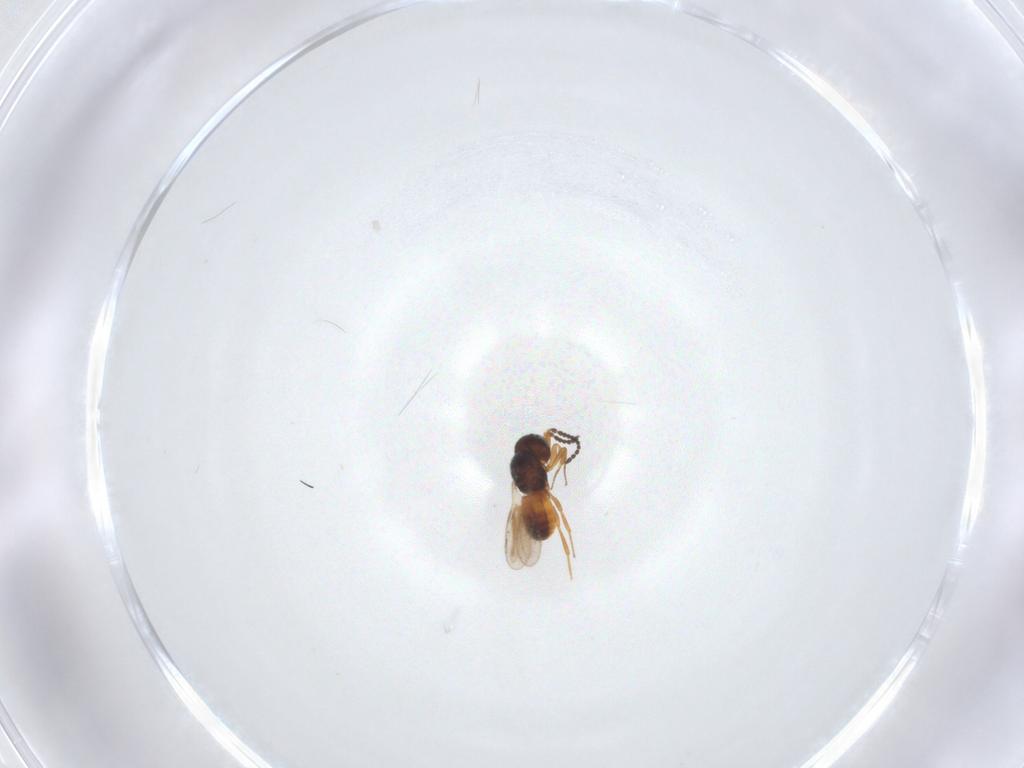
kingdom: Animalia
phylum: Arthropoda
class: Insecta
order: Hymenoptera
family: Scelionidae
